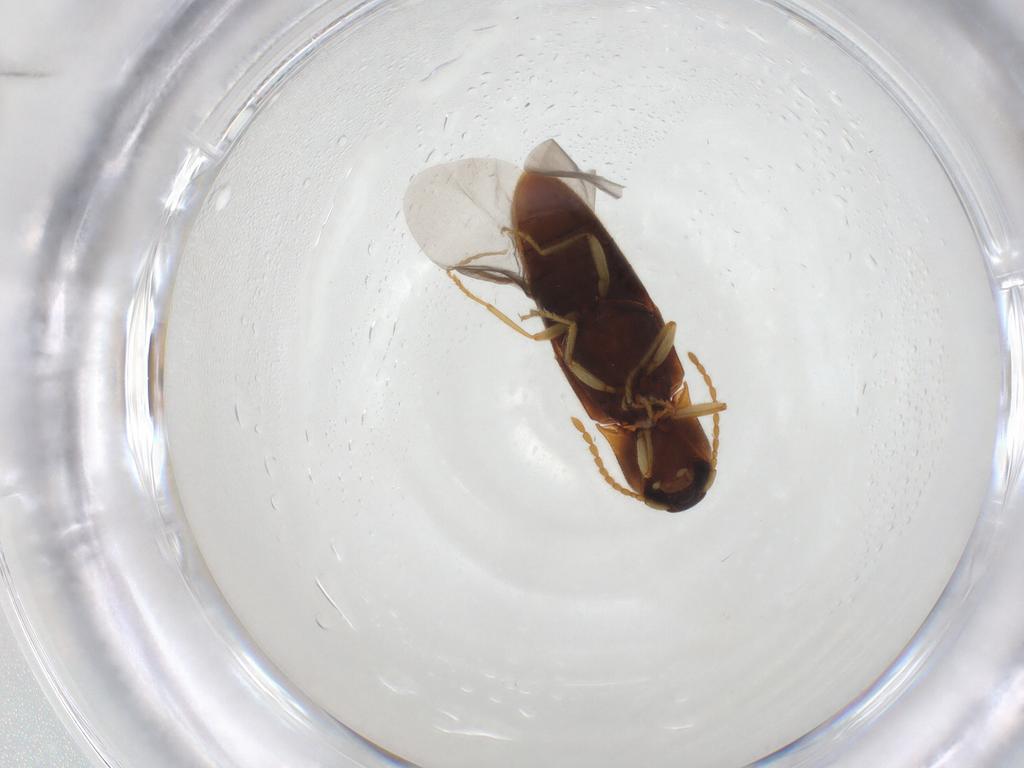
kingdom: Animalia
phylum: Arthropoda
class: Insecta
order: Coleoptera
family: Elateridae
